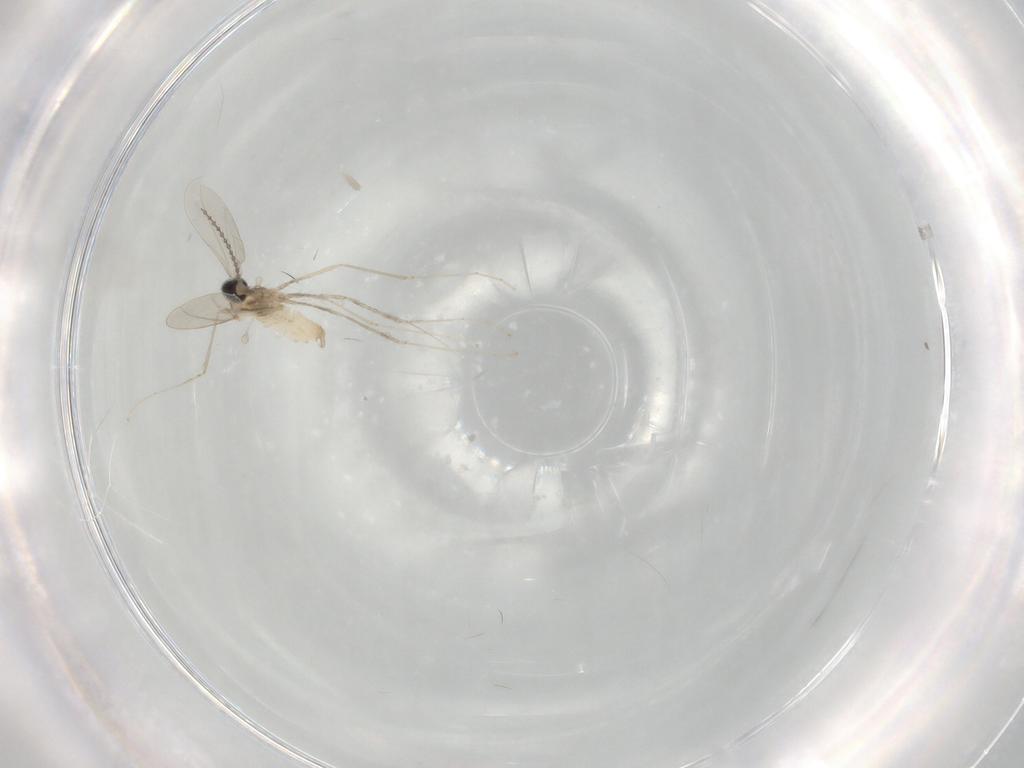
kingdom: Animalia
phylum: Arthropoda
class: Insecta
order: Diptera
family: Cecidomyiidae
